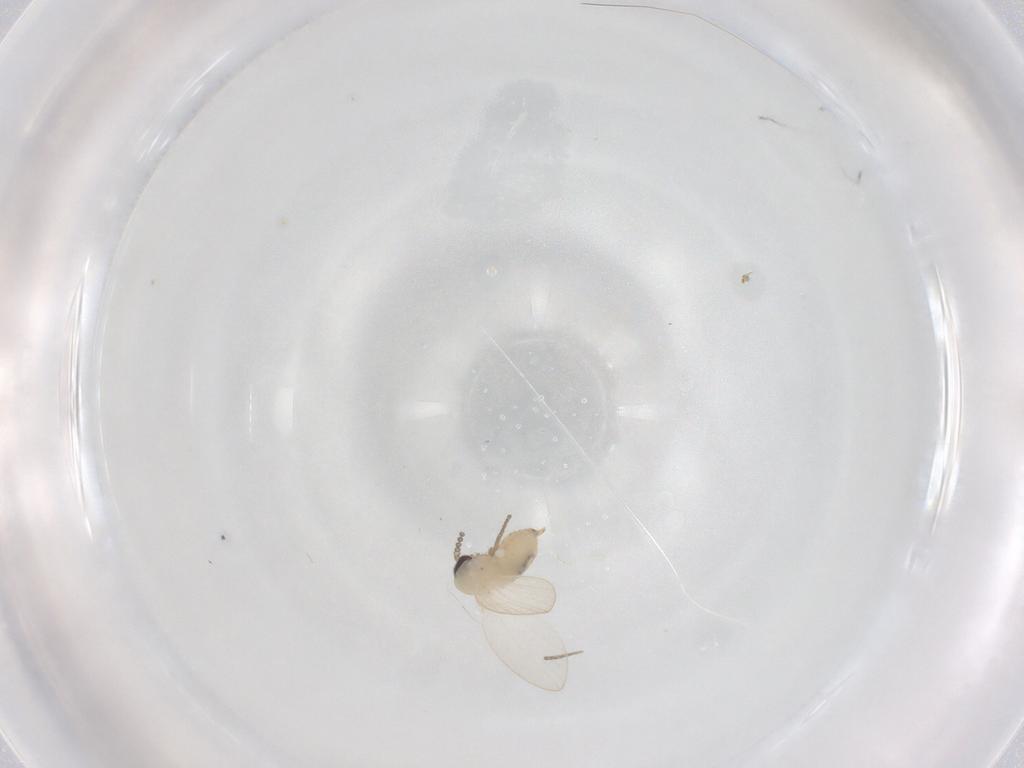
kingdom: Animalia
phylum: Arthropoda
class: Insecta
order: Diptera
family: Psychodidae
